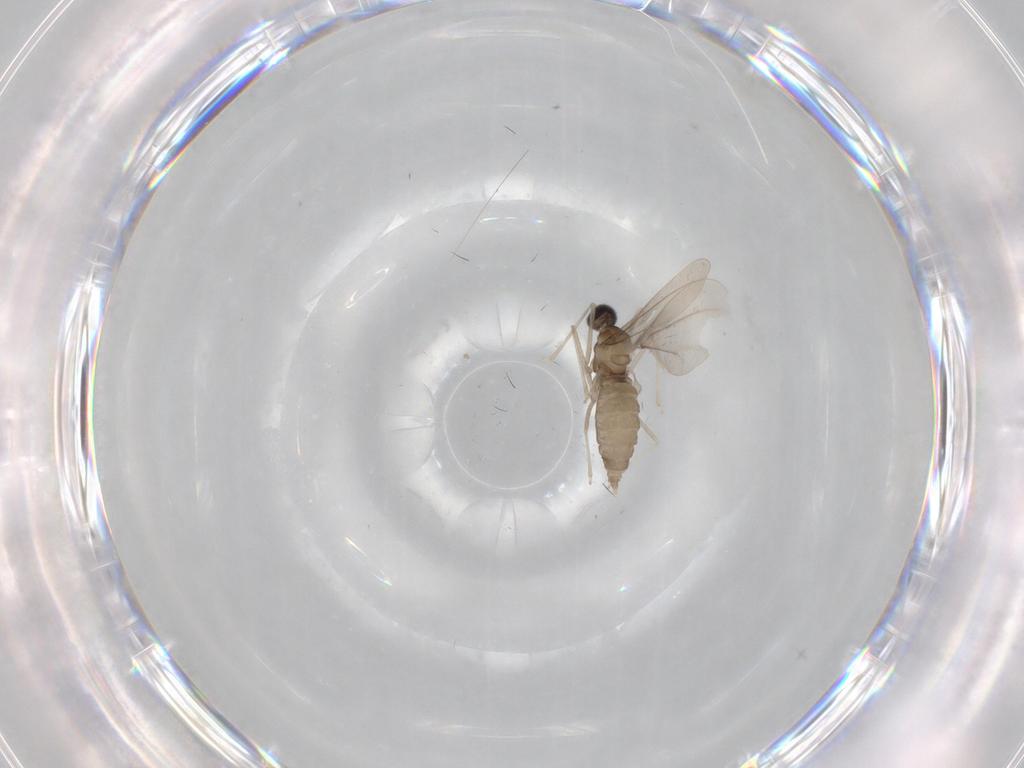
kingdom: Animalia
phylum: Arthropoda
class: Insecta
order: Diptera
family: Cecidomyiidae
